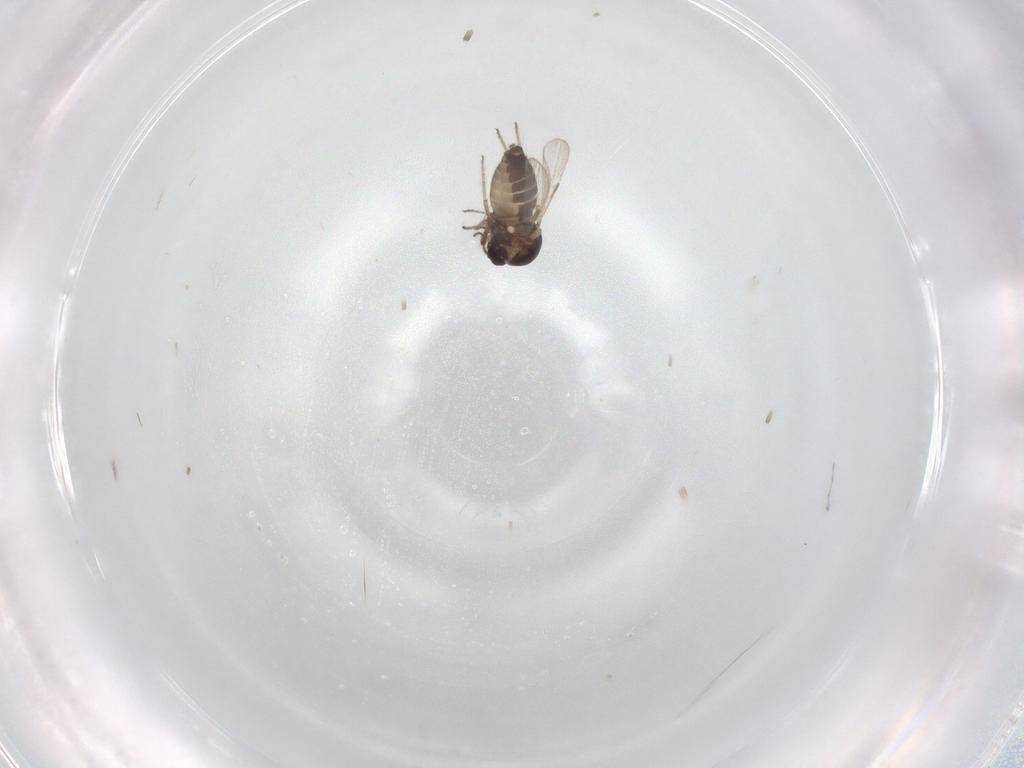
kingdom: Animalia
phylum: Arthropoda
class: Insecta
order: Diptera
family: Ceratopogonidae
